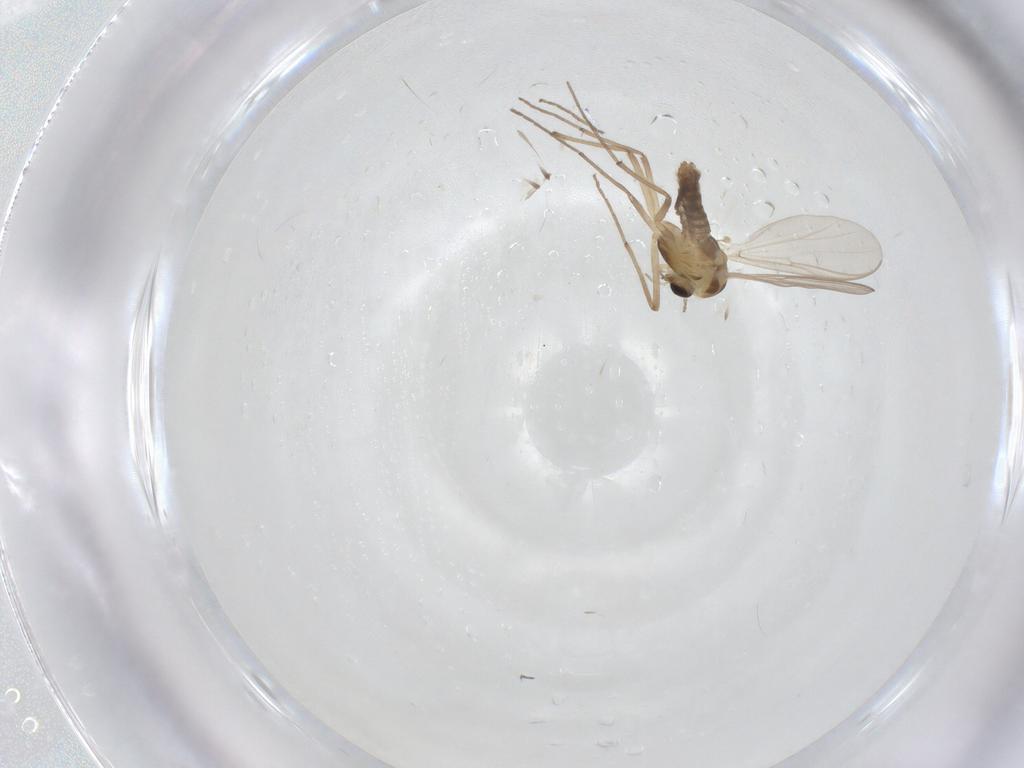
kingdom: Animalia
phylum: Arthropoda
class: Insecta
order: Diptera
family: Chironomidae
